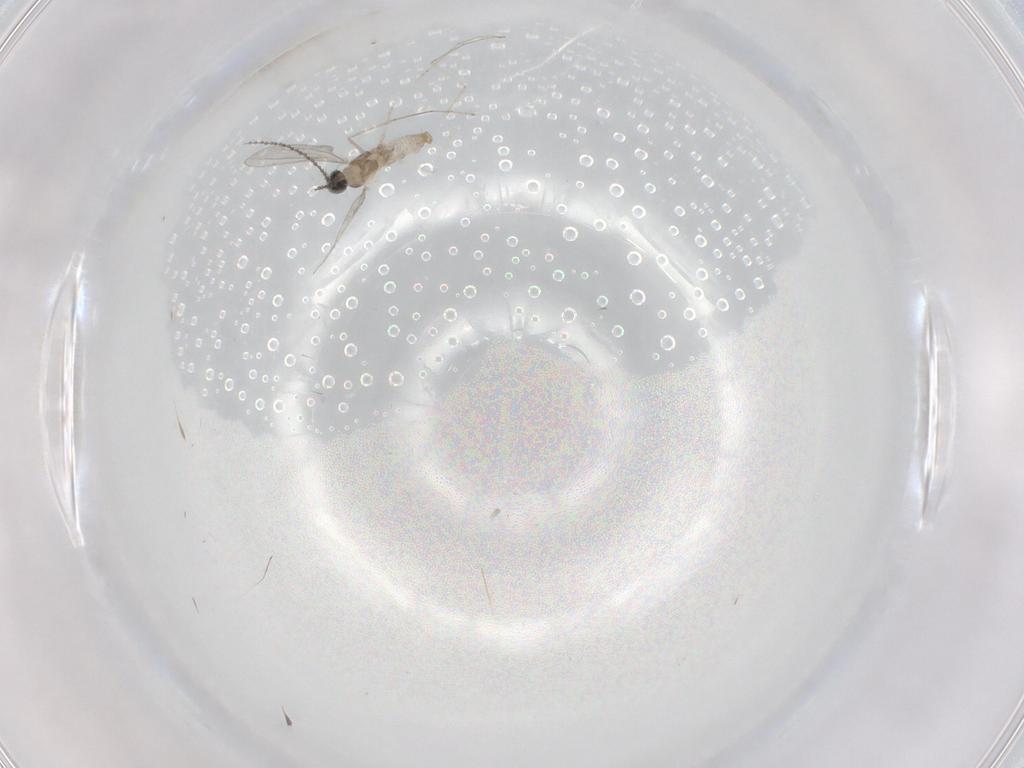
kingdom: Animalia
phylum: Arthropoda
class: Insecta
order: Diptera
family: Cecidomyiidae
